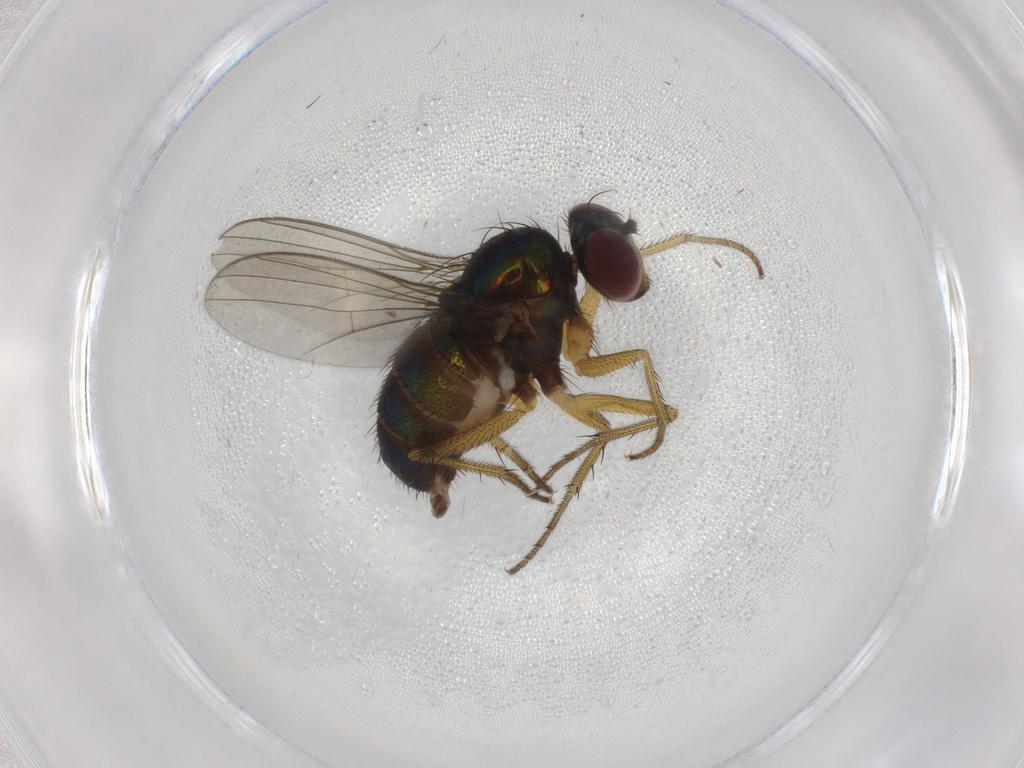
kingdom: Animalia
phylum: Arthropoda
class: Insecta
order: Diptera
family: Dolichopodidae
